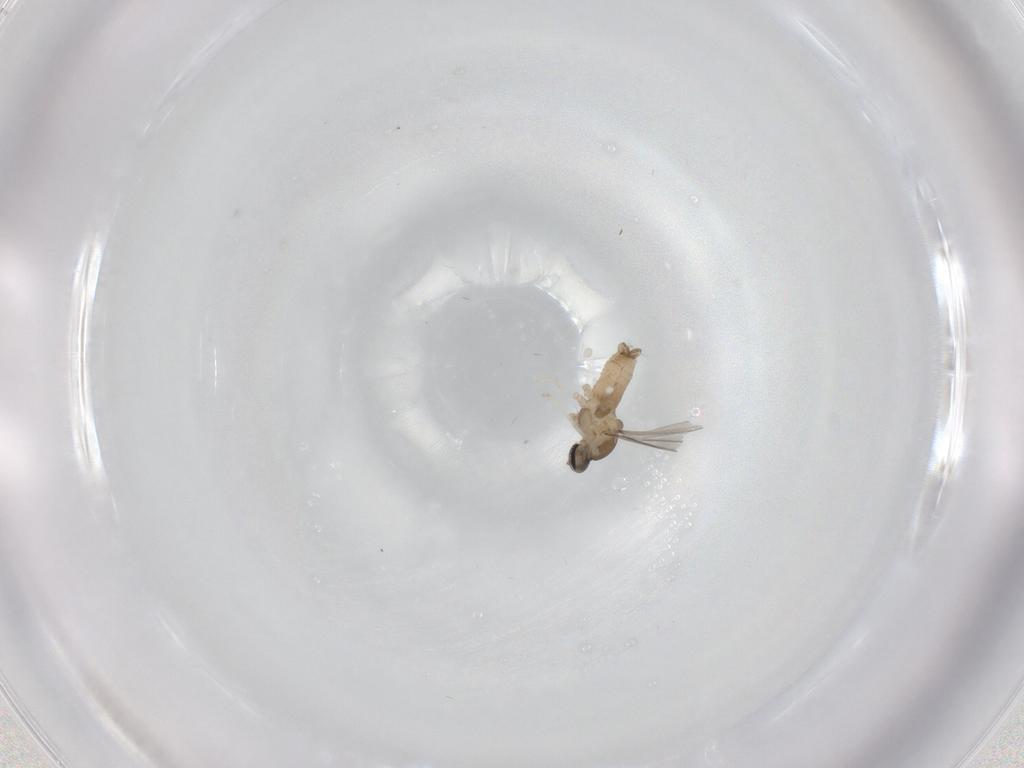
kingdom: Animalia
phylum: Arthropoda
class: Insecta
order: Diptera
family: Cecidomyiidae
